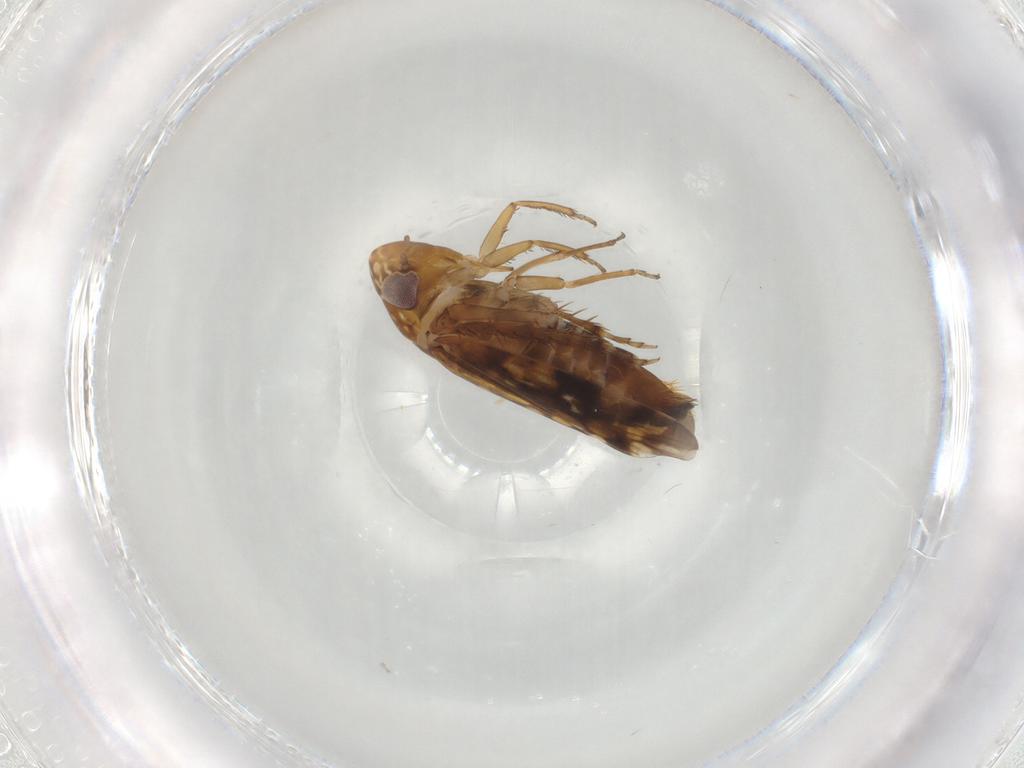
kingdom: Animalia
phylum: Arthropoda
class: Insecta
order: Hemiptera
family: Cicadellidae
